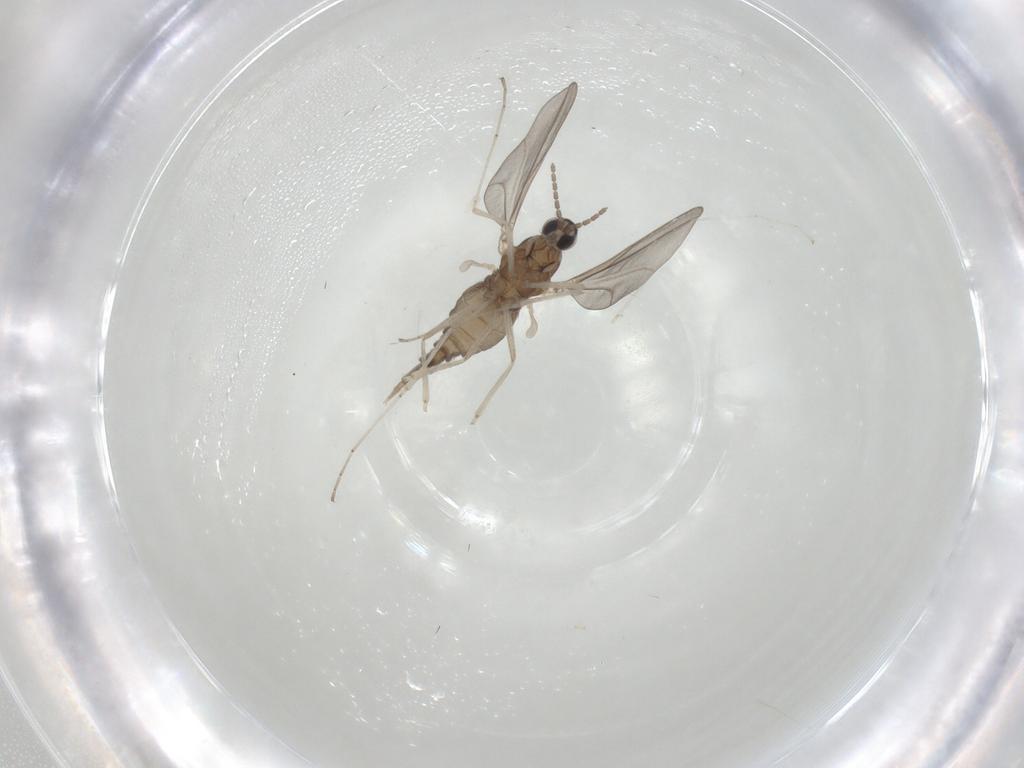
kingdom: Animalia
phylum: Arthropoda
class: Insecta
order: Diptera
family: Cecidomyiidae
